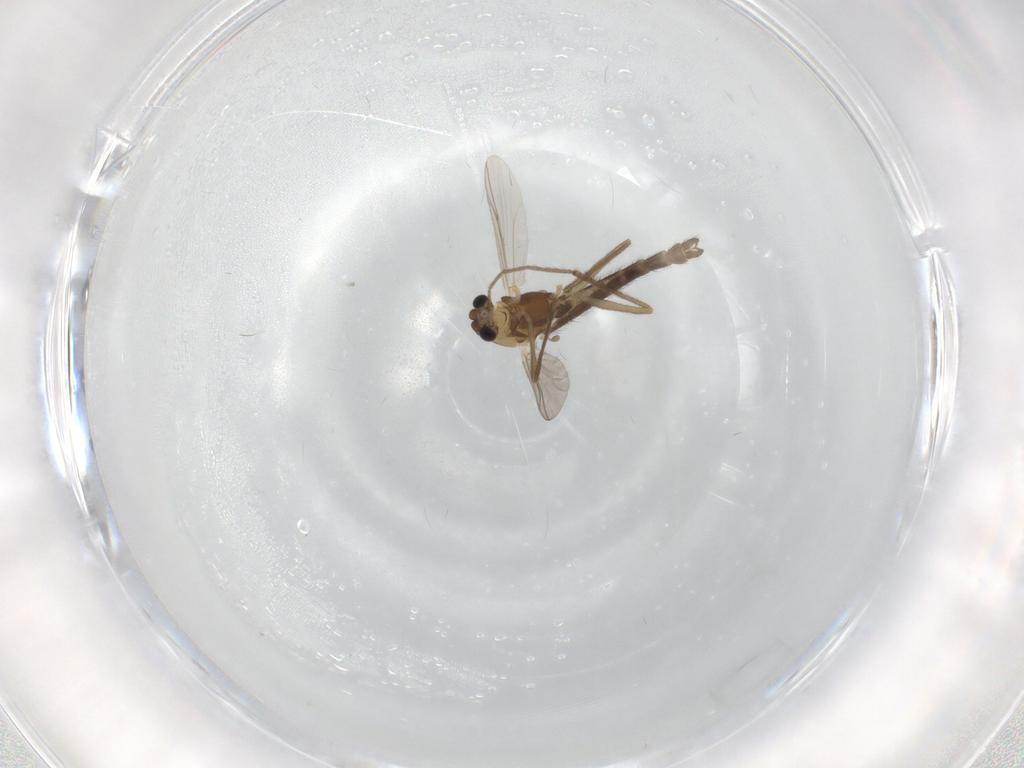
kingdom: Animalia
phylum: Arthropoda
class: Insecta
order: Diptera
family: Chironomidae
